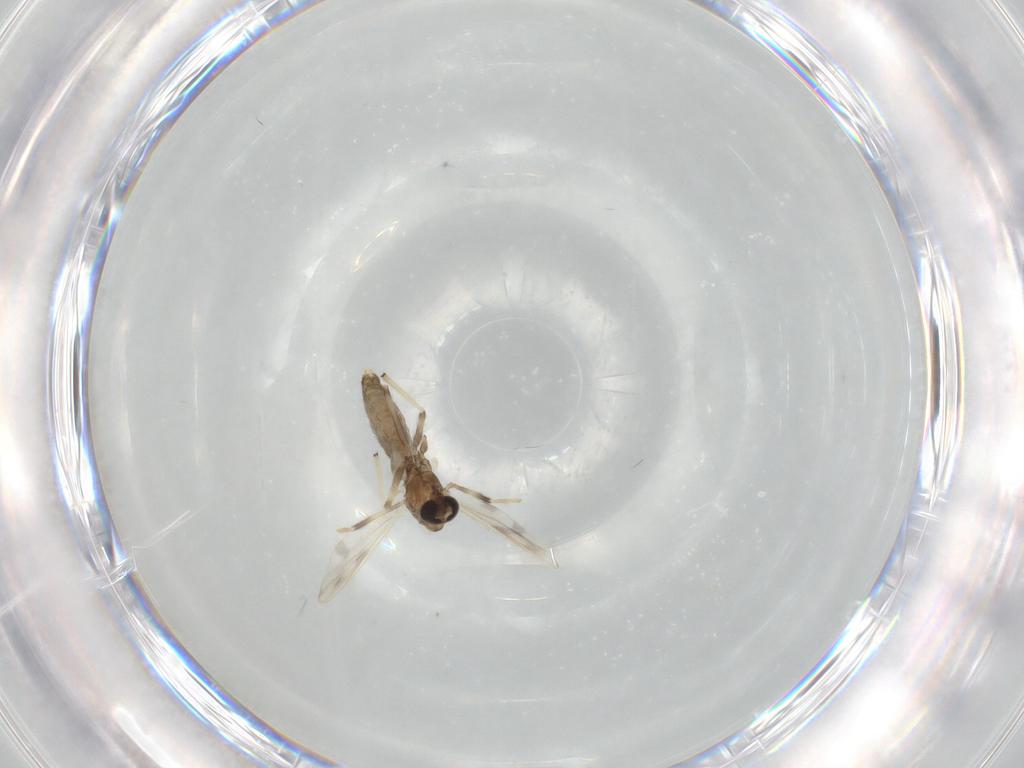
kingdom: Animalia
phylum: Arthropoda
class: Insecta
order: Diptera
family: Chironomidae
